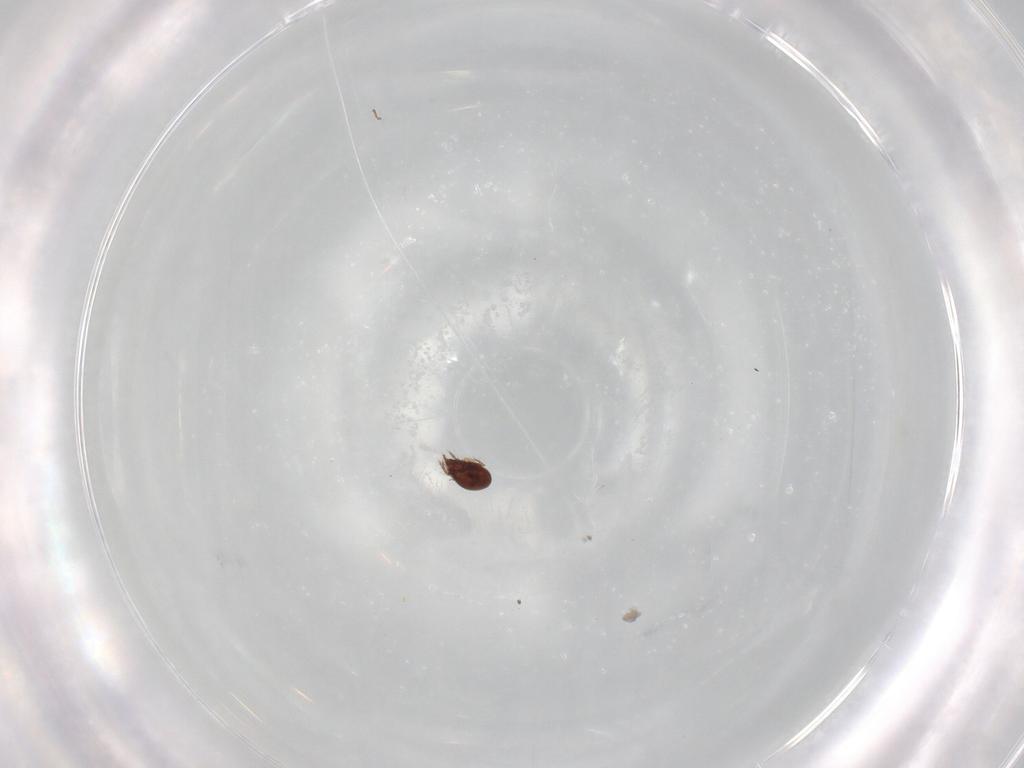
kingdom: Animalia
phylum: Arthropoda
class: Arachnida
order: Sarcoptiformes
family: Ceratozetidae
